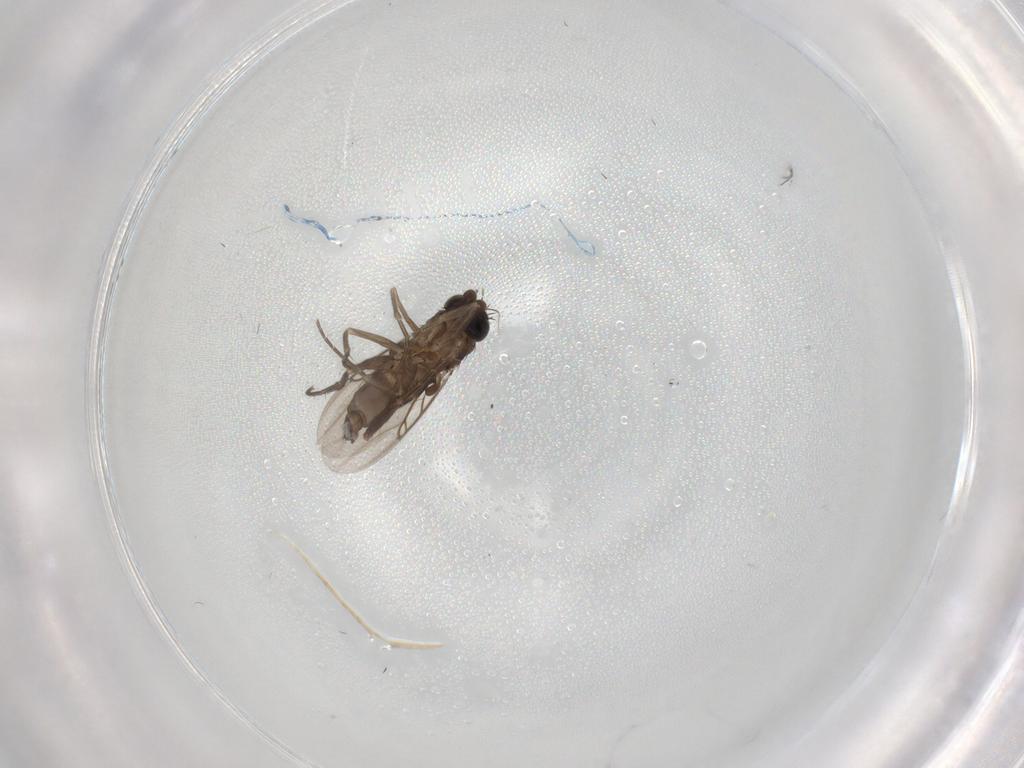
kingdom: Animalia
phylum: Arthropoda
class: Insecta
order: Diptera
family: Phoridae
